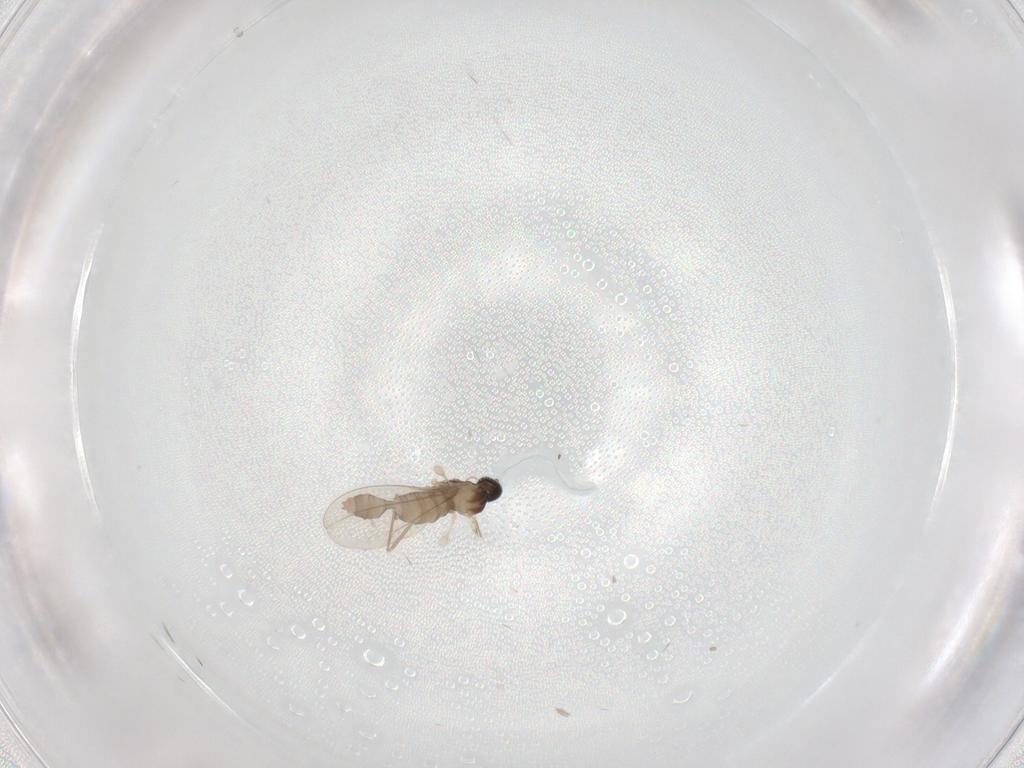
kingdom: Animalia
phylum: Arthropoda
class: Insecta
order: Diptera
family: Cecidomyiidae
